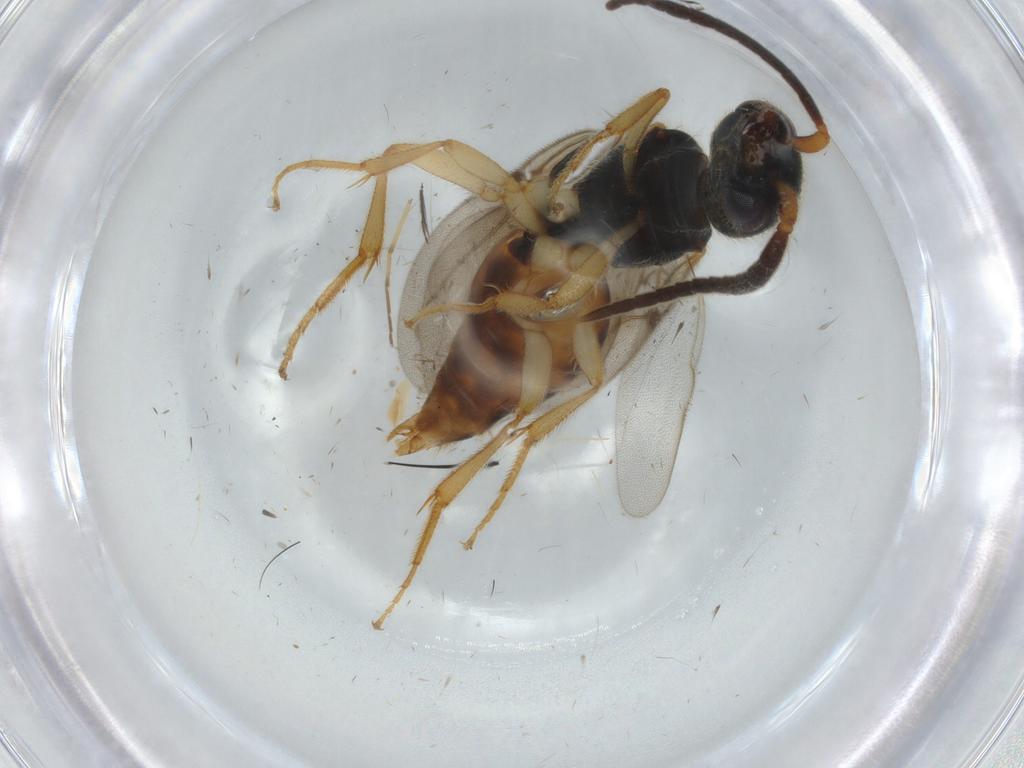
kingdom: Animalia
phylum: Arthropoda
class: Insecta
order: Hymenoptera
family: Bethylidae
